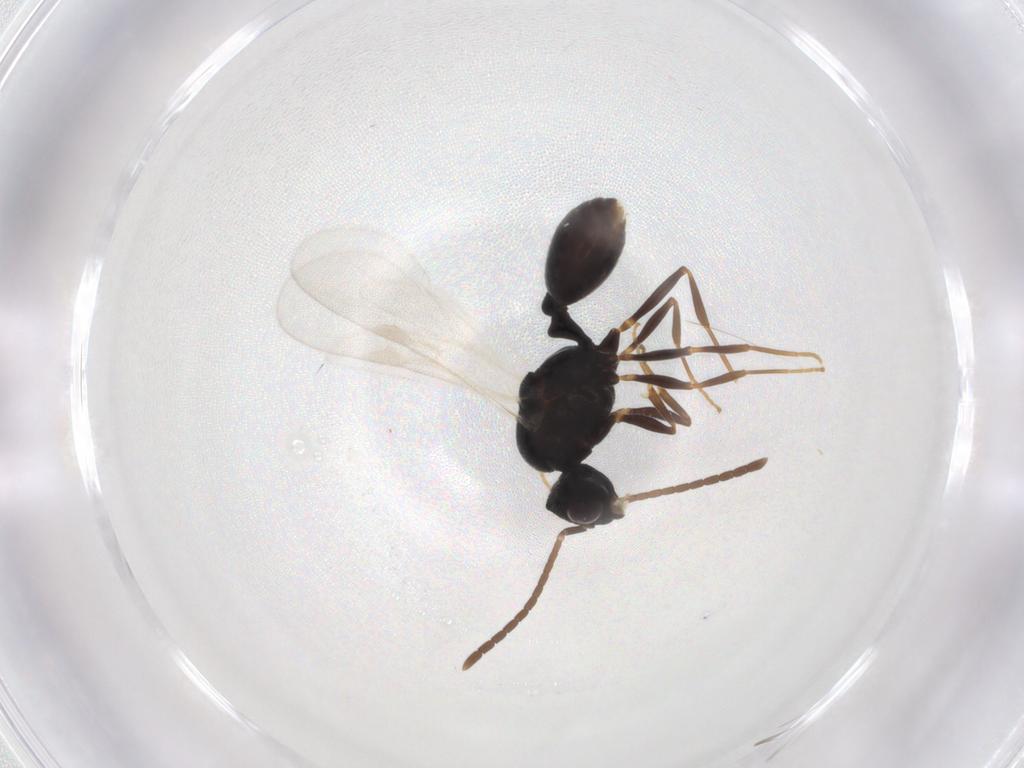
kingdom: Animalia
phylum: Arthropoda
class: Insecta
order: Hymenoptera
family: Formicidae
